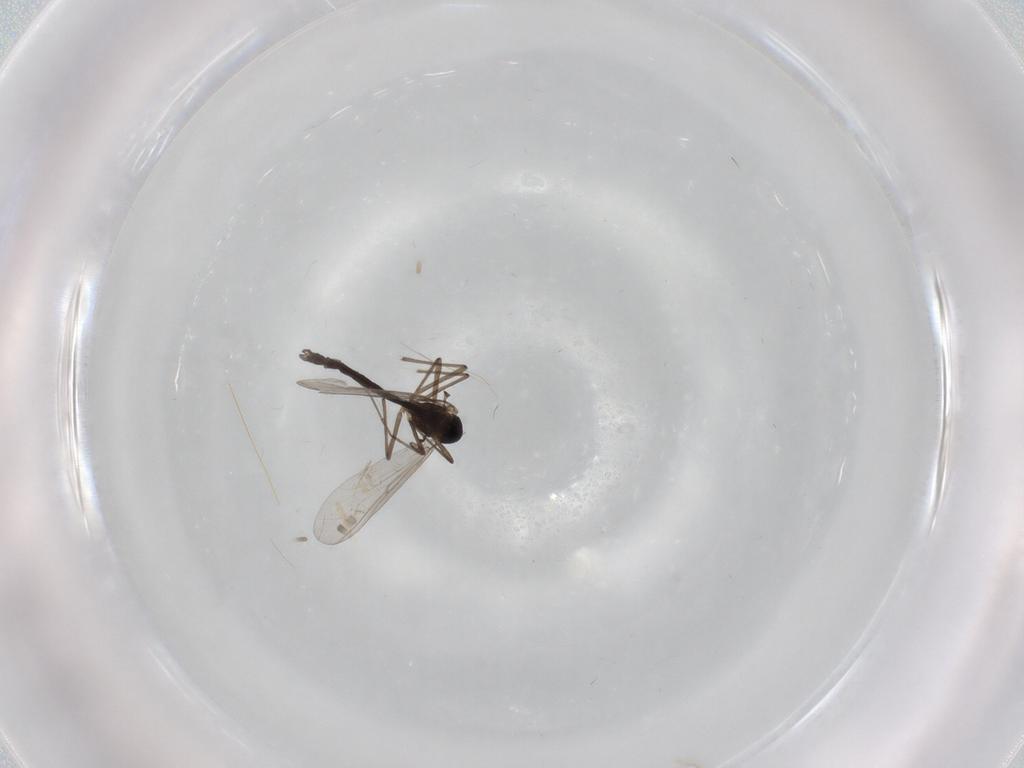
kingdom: Animalia
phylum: Arthropoda
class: Insecta
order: Diptera
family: Chironomidae
